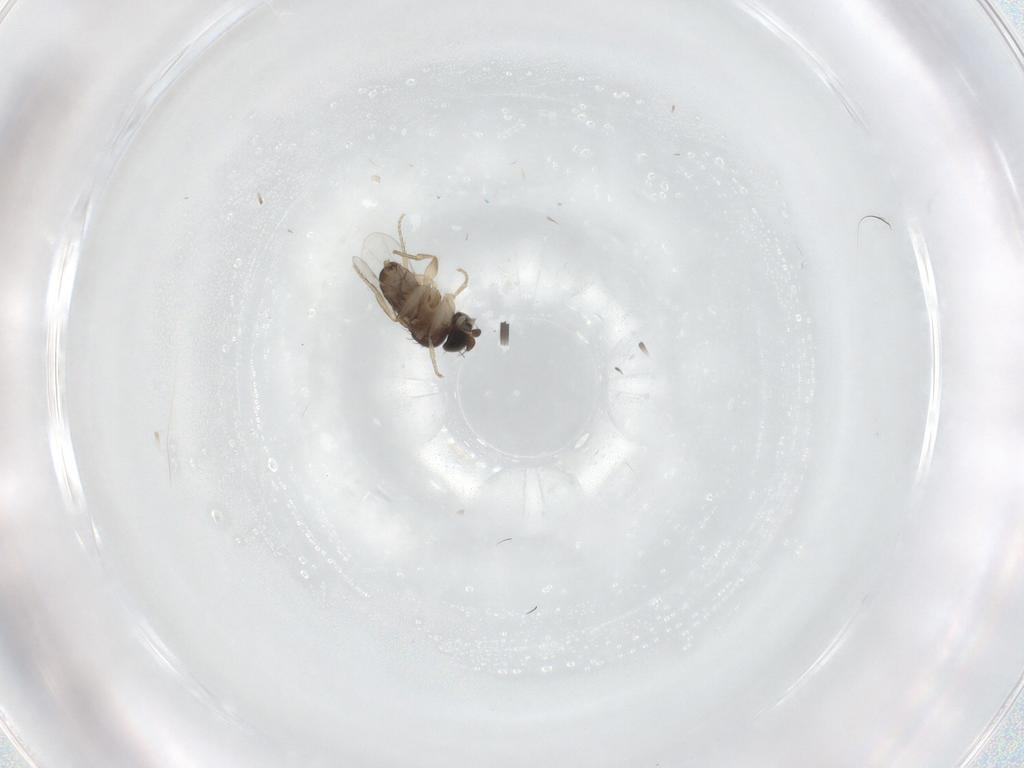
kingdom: Animalia
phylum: Arthropoda
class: Insecta
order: Diptera
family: Phoridae
